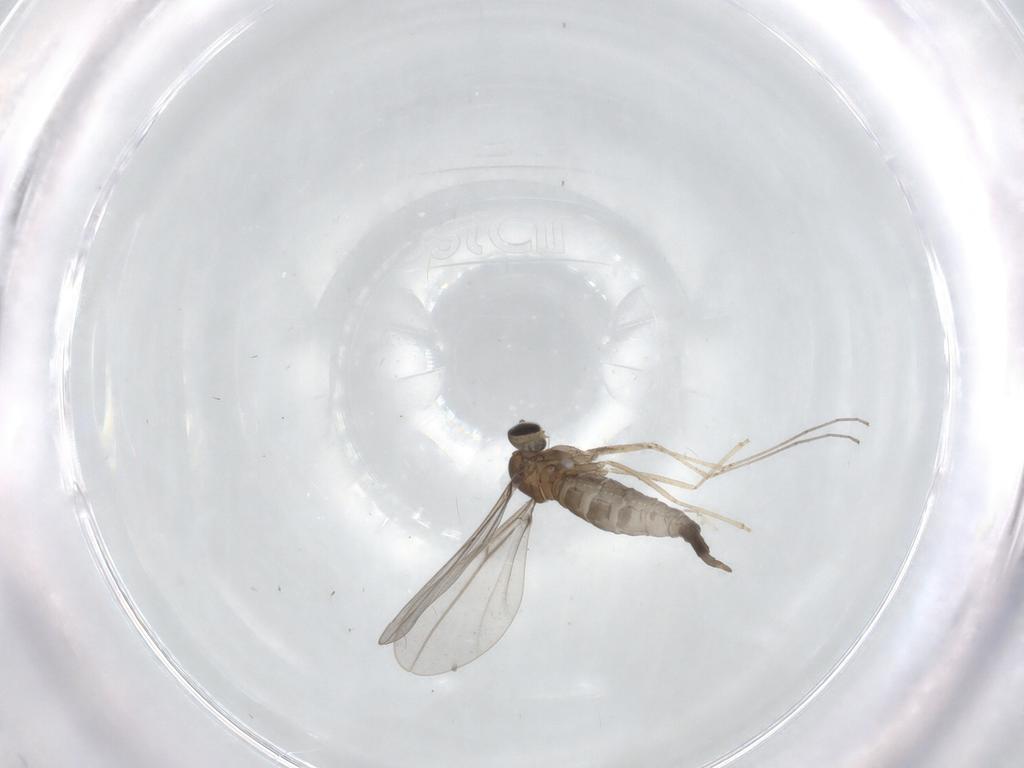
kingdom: Animalia
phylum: Arthropoda
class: Insecta
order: Diptera
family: Cecidomyiidae
